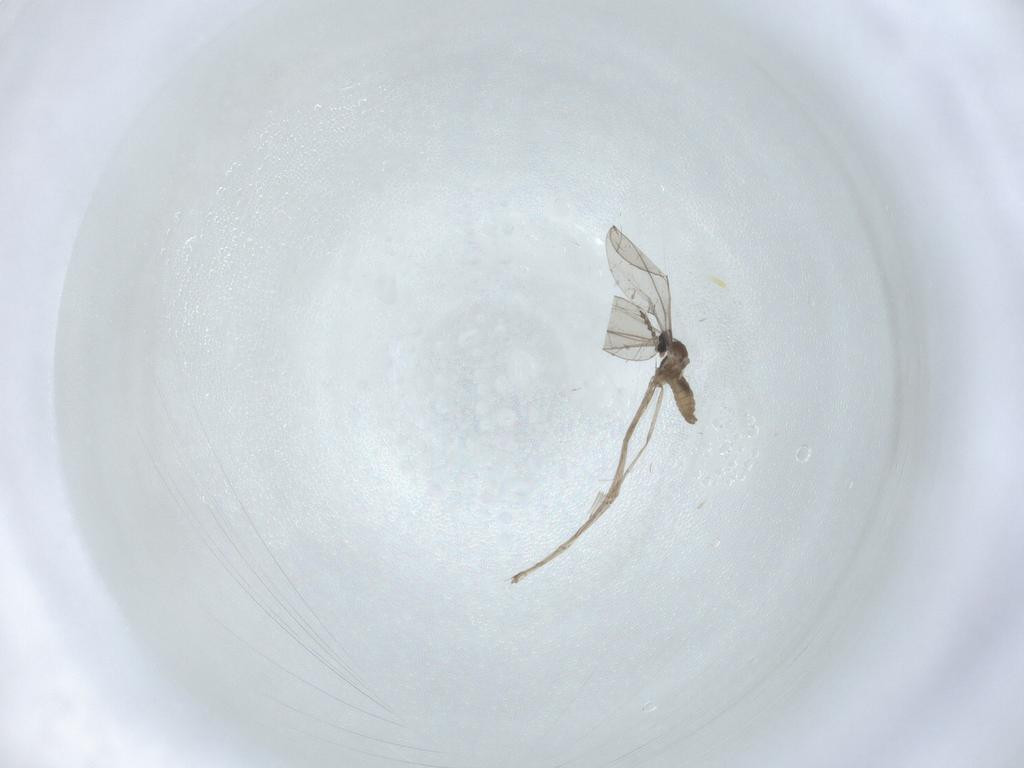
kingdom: Animalia
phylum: Arthropoda
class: Insecta
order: Diptera
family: Cecidomyiidae
